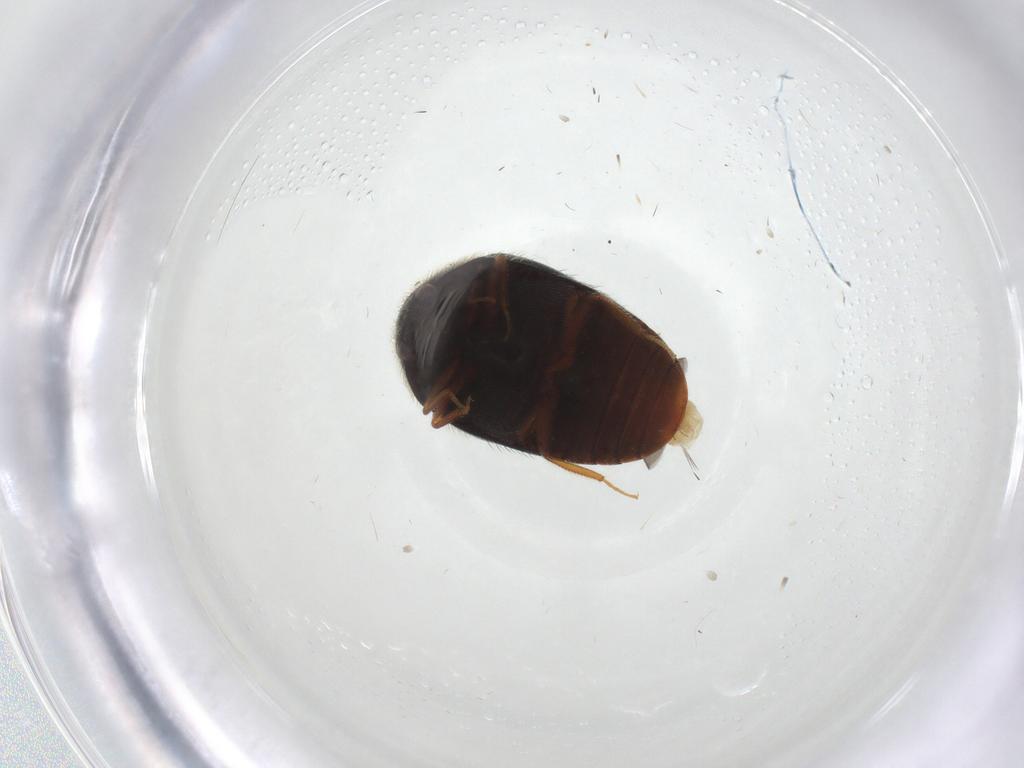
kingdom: Animalia
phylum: Arthropoda
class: Insecta
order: Coleoptera
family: Dermestidae
